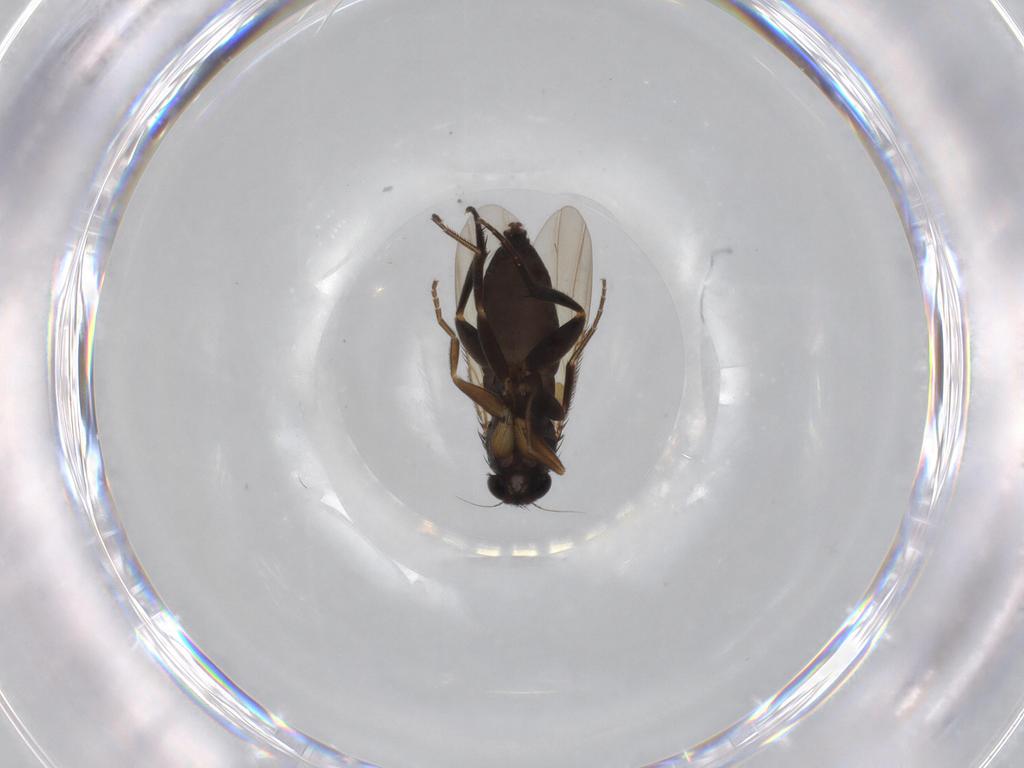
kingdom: Animalia
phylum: Arthropoda
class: Insecta
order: Diptera
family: Phoridae
